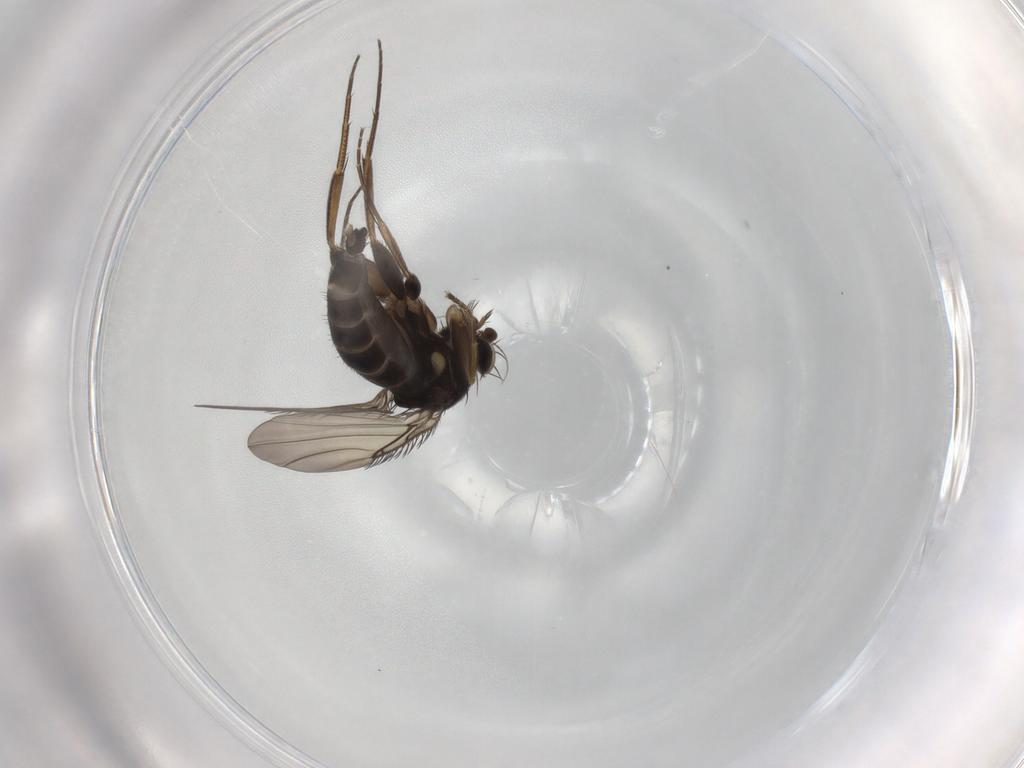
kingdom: Animalia
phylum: Arthropoda
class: Insecta
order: Diptera
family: Phoridae
